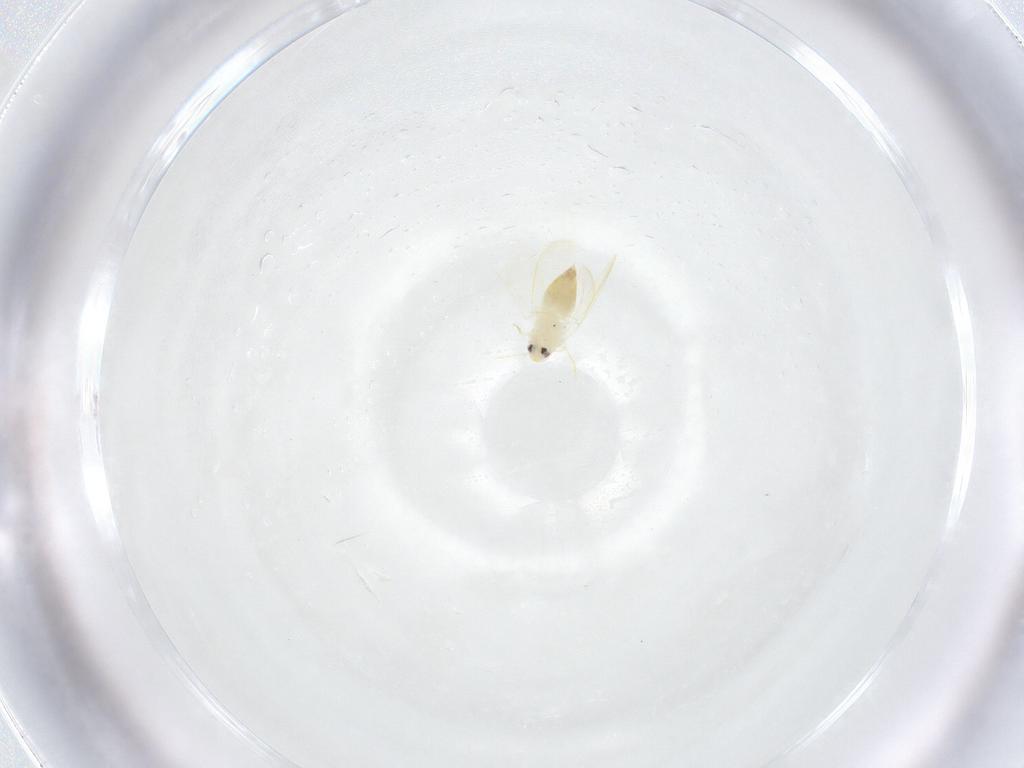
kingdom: Animalia
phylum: Arthropoda
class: Insecta
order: Hemiptera
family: Aleyrodidae
